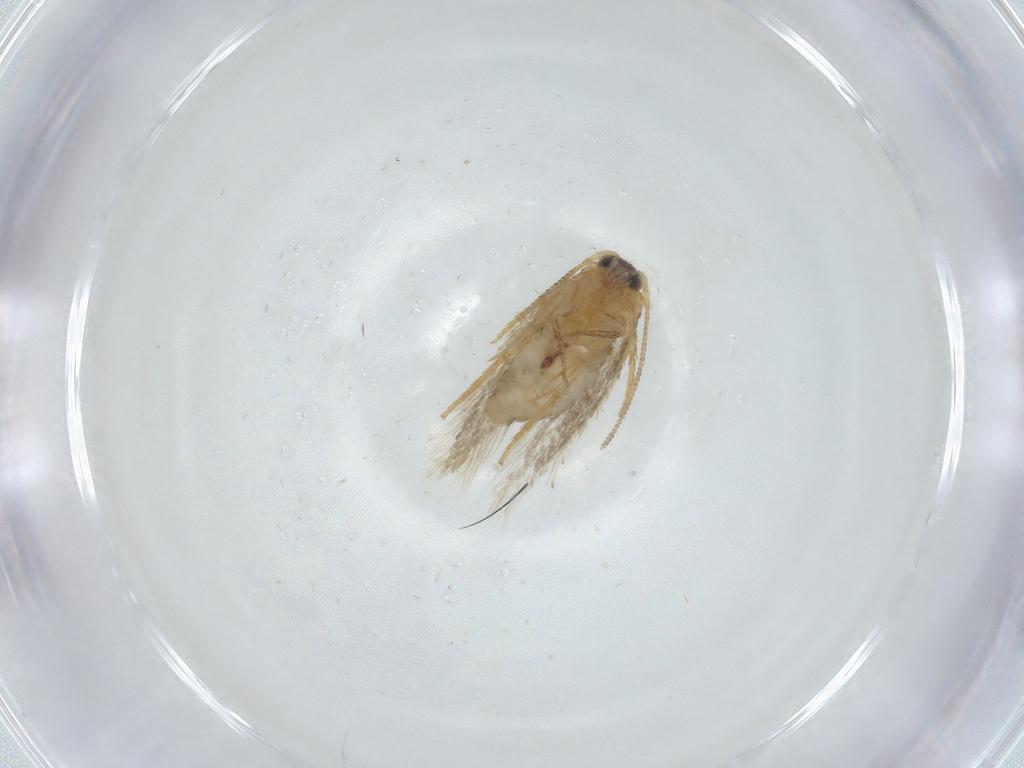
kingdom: Animalia
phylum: Arthropoda
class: Insecta
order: Lepidoptera
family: Nepticulidae
